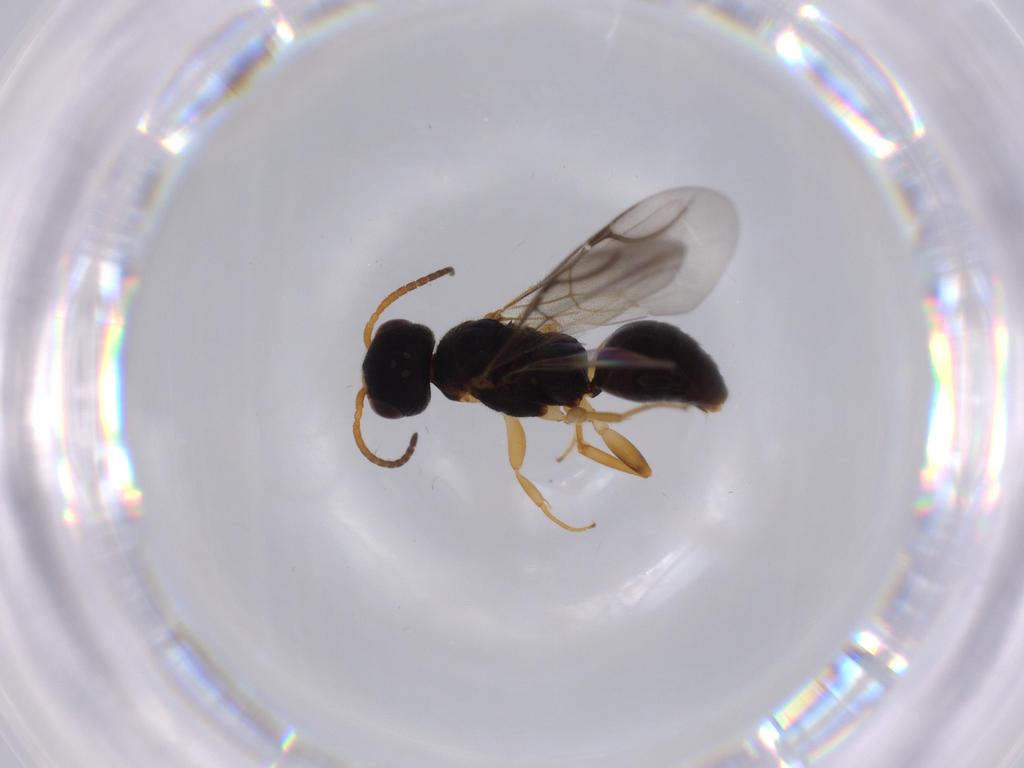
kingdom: Animalia
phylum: Arthropoda
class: Insecta
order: Hymenoptera
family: Bethylidae
